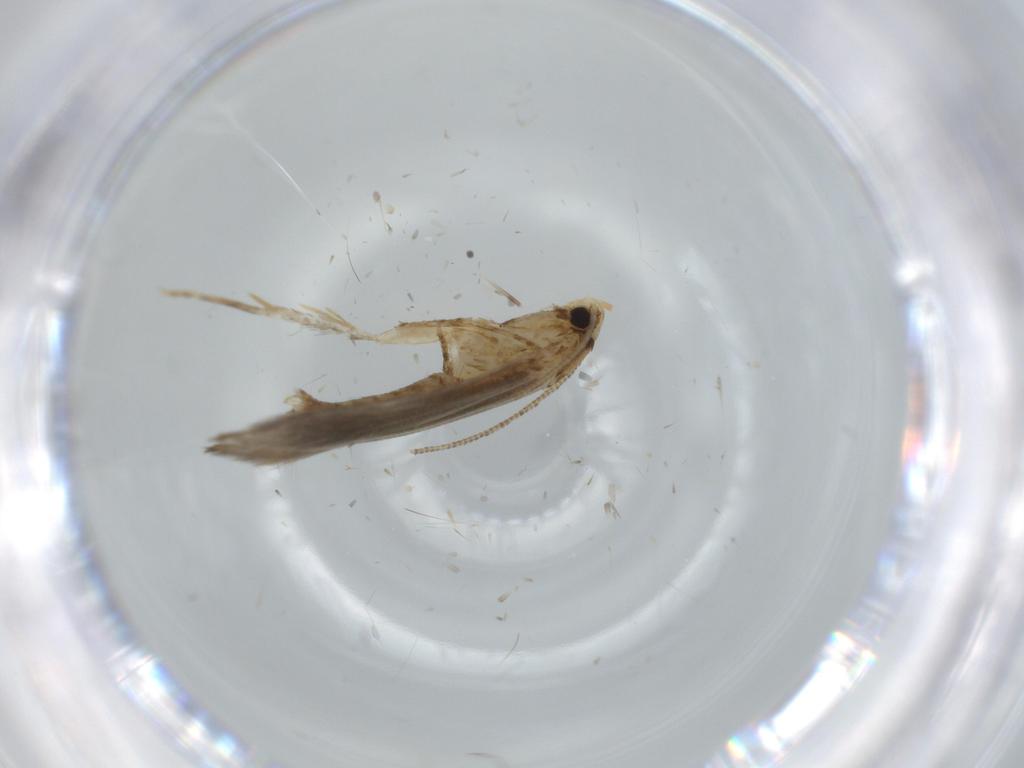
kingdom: Animalia
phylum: Arthropoda
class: Insecta
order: Lepidoptera
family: Tineidae
